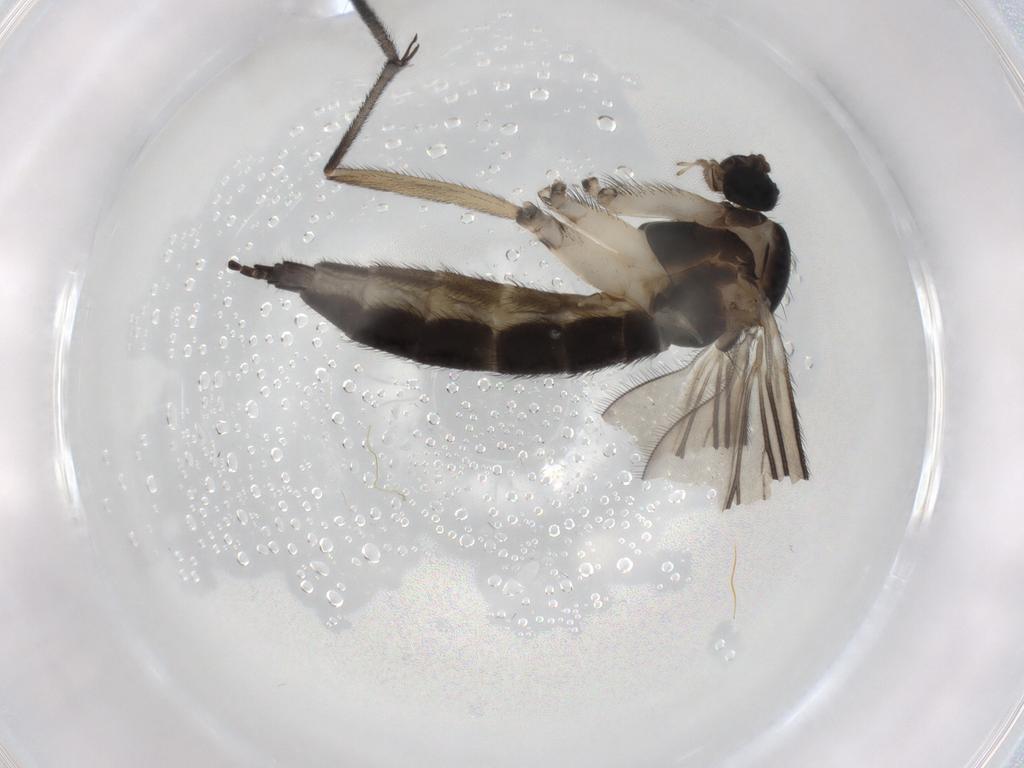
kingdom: Animalia
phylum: Arthropoda
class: Insecta
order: Diptera
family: Sciaridae
